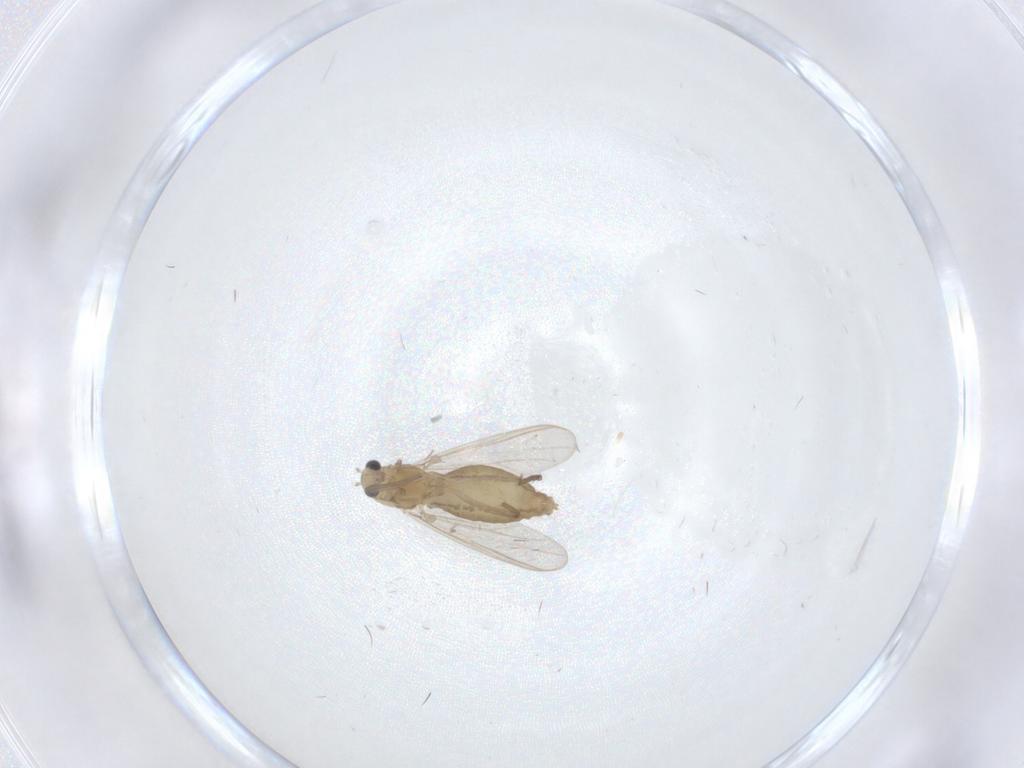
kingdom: Animalia
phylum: Arthropoda
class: Insecta
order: Diptera
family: Chironomidae
